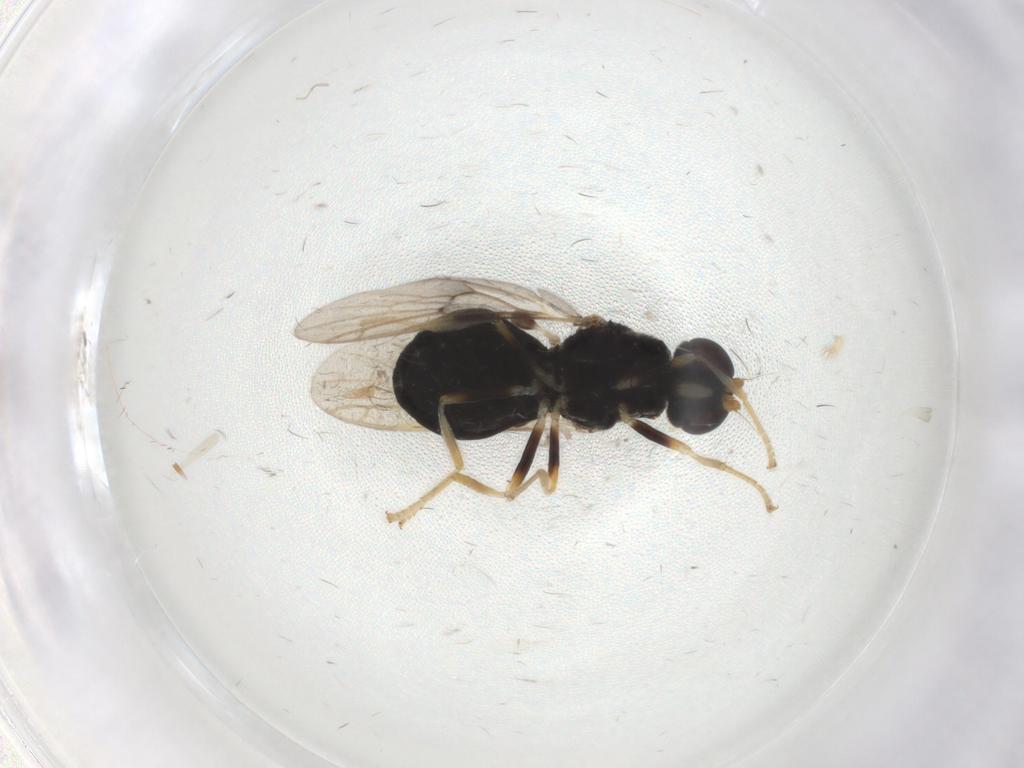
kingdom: Animalia
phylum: Arthropoda
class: Insecta
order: Diptera
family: Stratiomyidae
